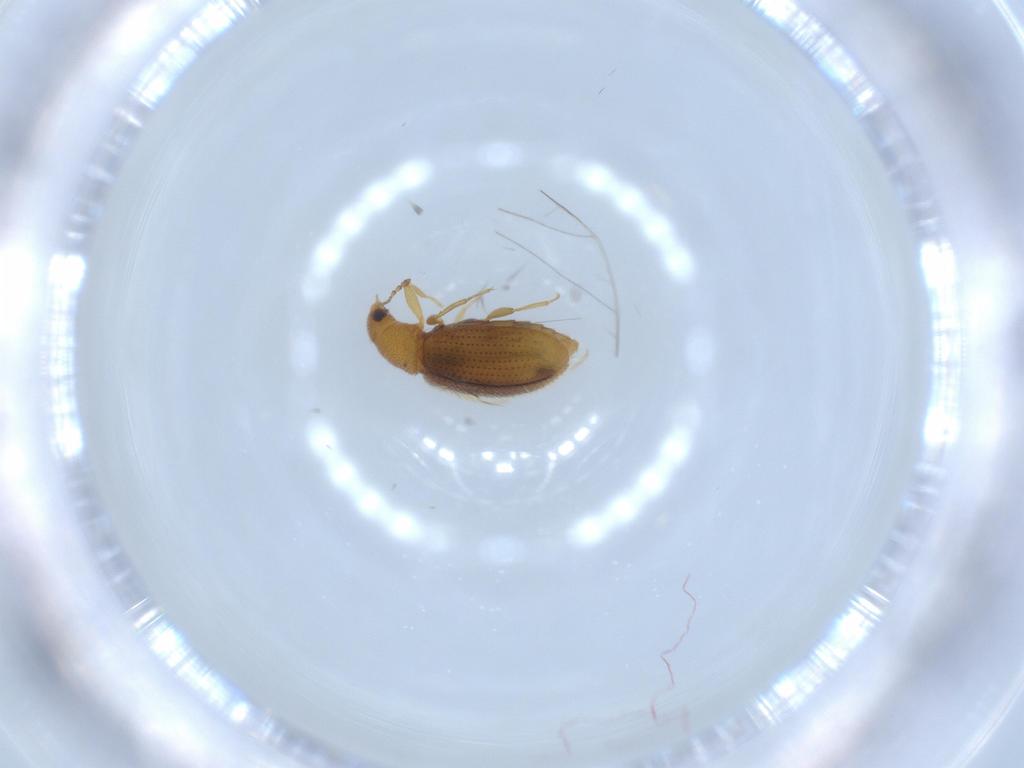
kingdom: Animalia
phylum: Arthropoda
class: Insecta
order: Coleoptera
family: Latridiidae
